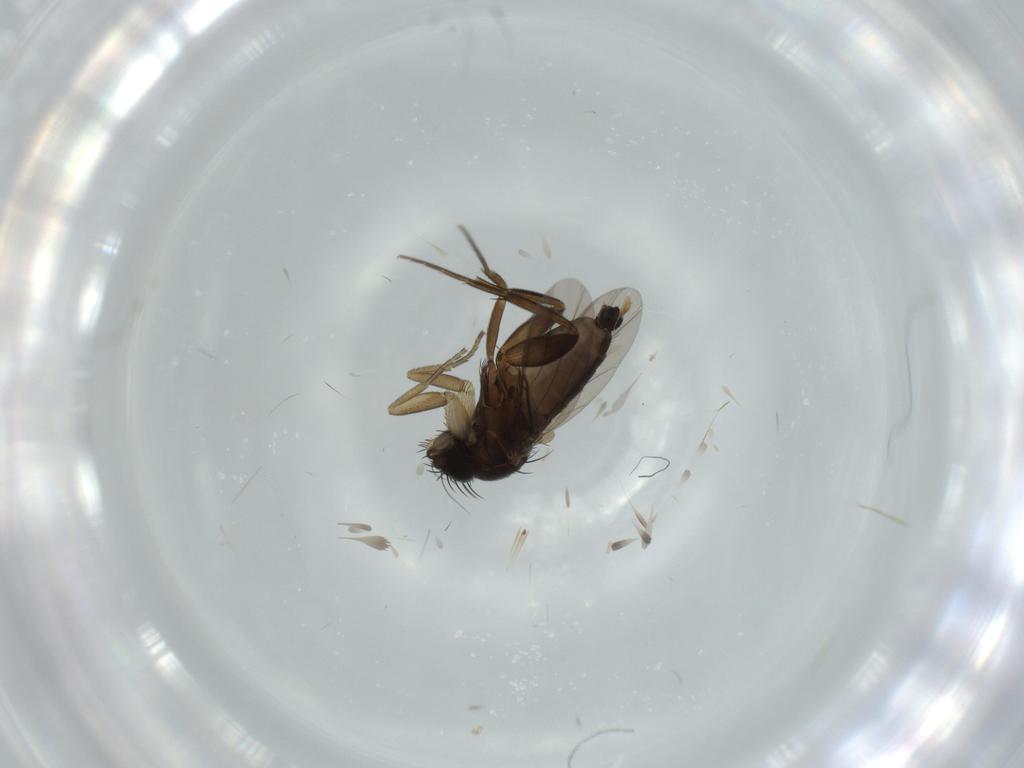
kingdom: Animalia
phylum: Arthropoda
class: Insecta
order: Diptera
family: Phoridae
